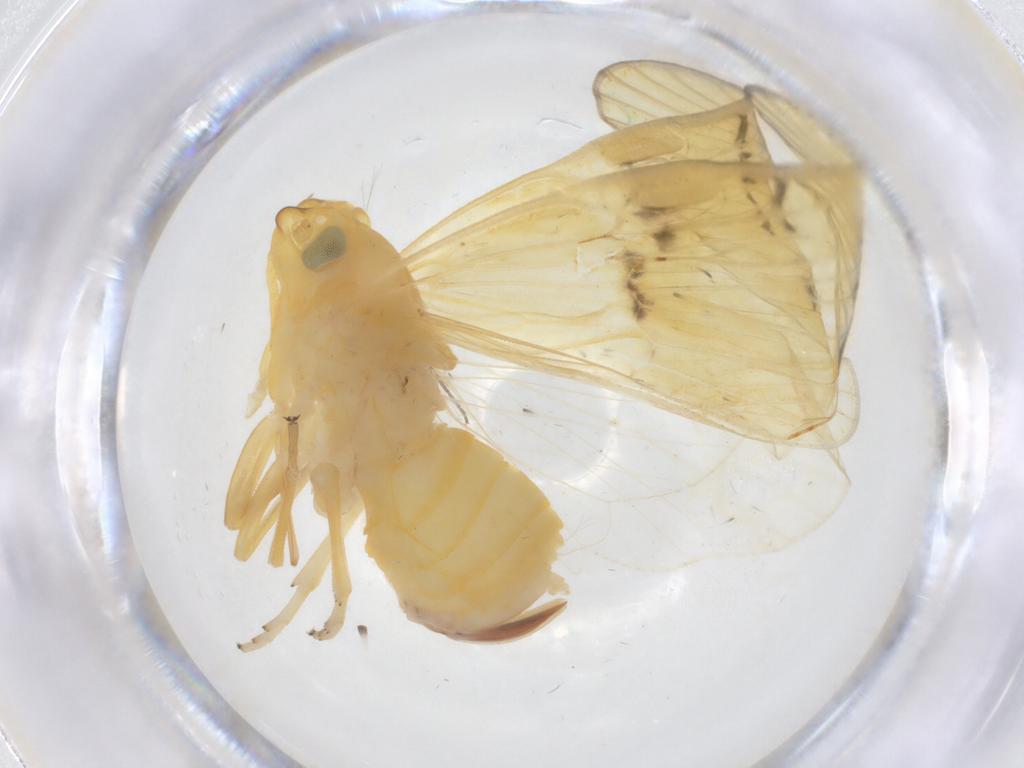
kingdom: Animalia
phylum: Arthropoda
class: Insecta
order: Hemiptera
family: Cixiidae
